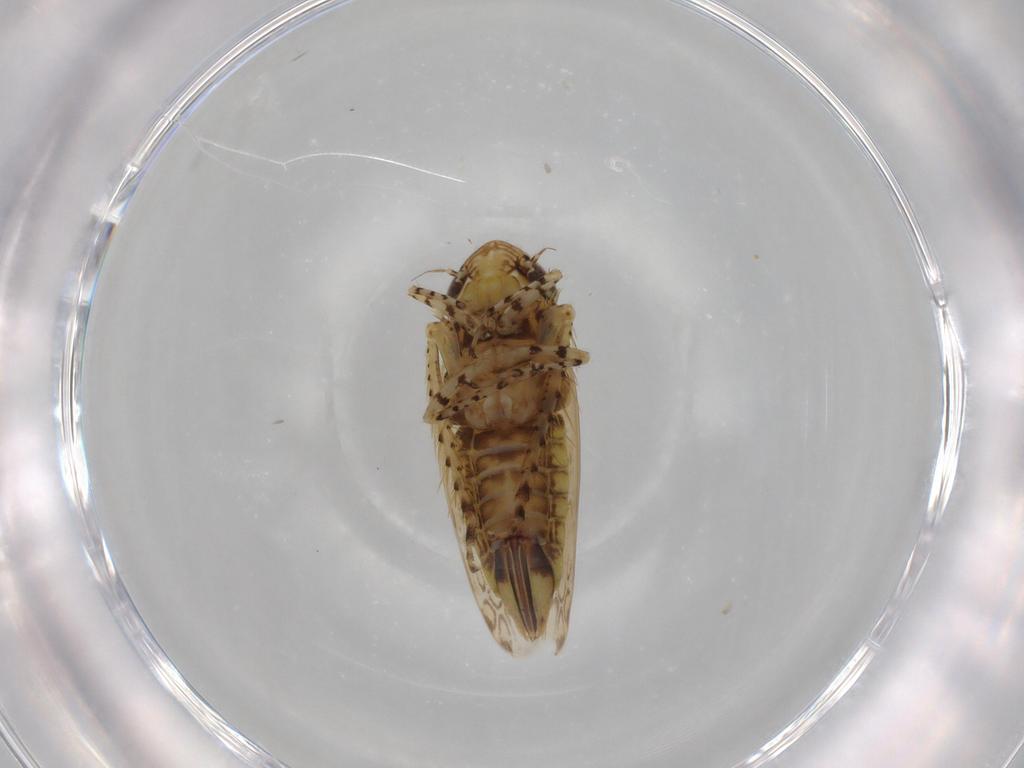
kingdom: Animalia
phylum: Arthropoda
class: Insecta
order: Hemiptera
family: Cicadellidae
